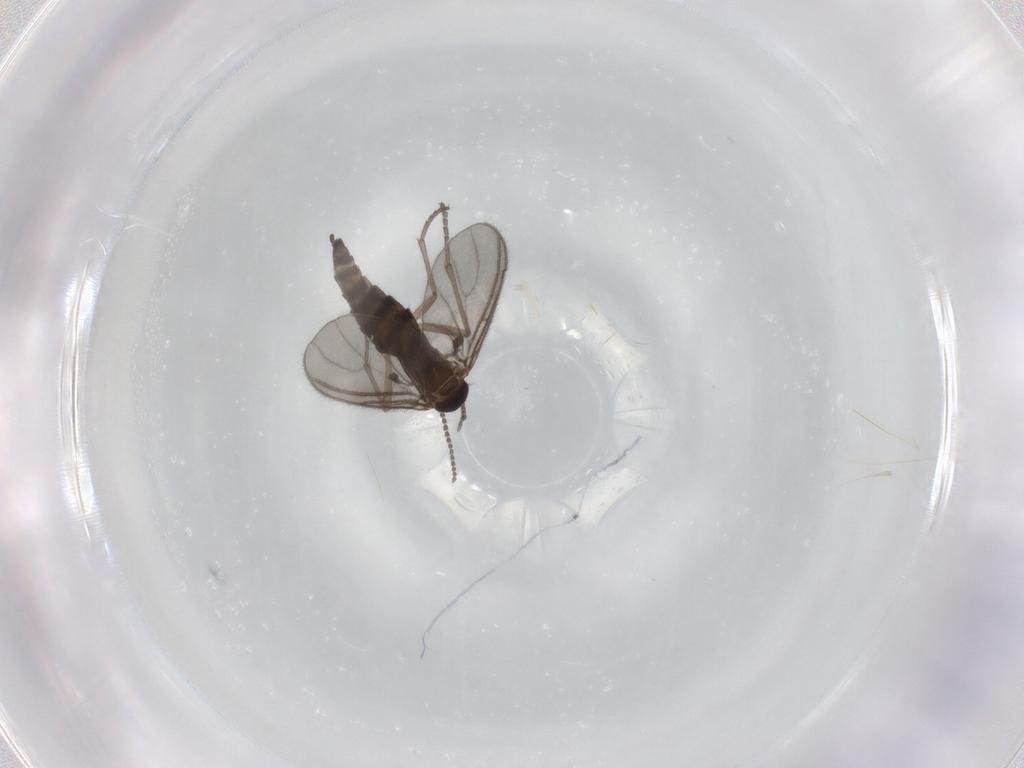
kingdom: Animalia
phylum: Arthropoda
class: Insecta
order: Diptera
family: Sciaridae
